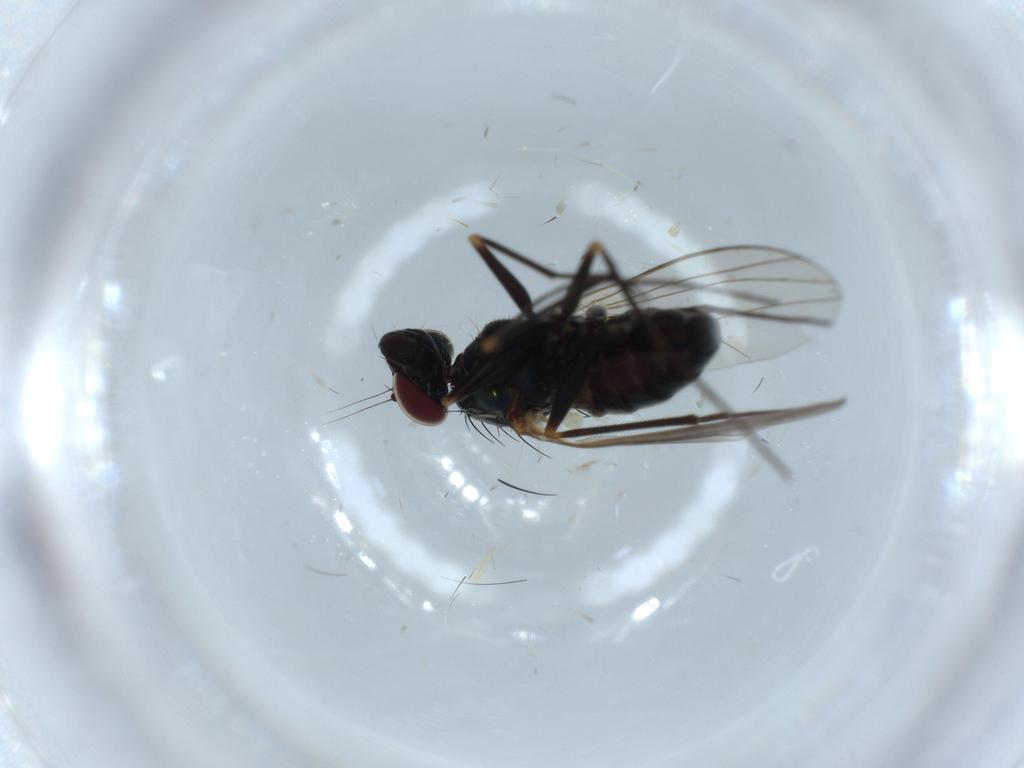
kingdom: Animalia
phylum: Arthropoda
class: Insecta
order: Diptera
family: Dolichopodidae
